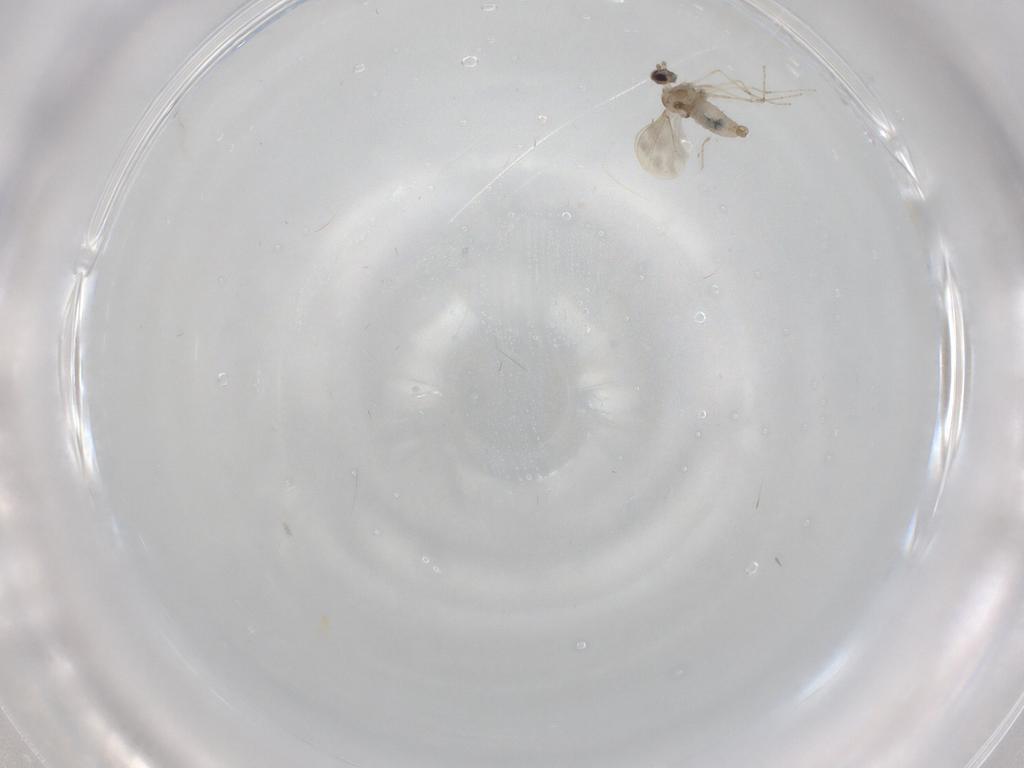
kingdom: Animalia
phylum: Arthropoda
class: Insecta
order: Diptera
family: Cecidomyiidae
